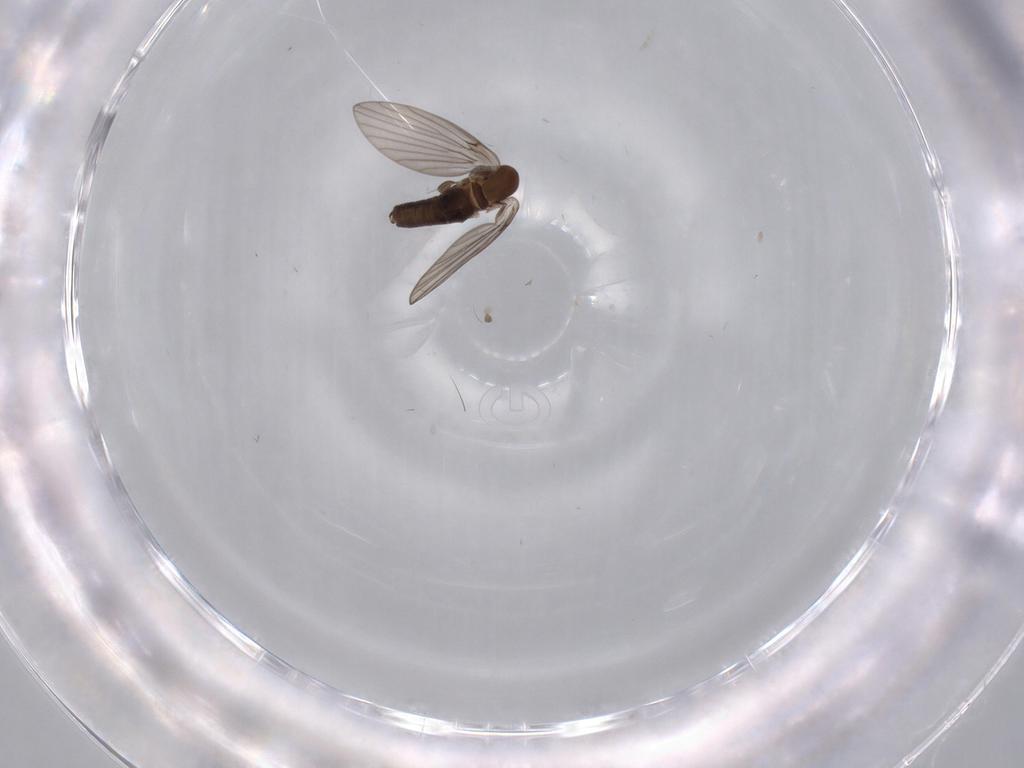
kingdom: Animalia
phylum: Arthropoda
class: Insecta
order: Diptera
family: Psychodidae
